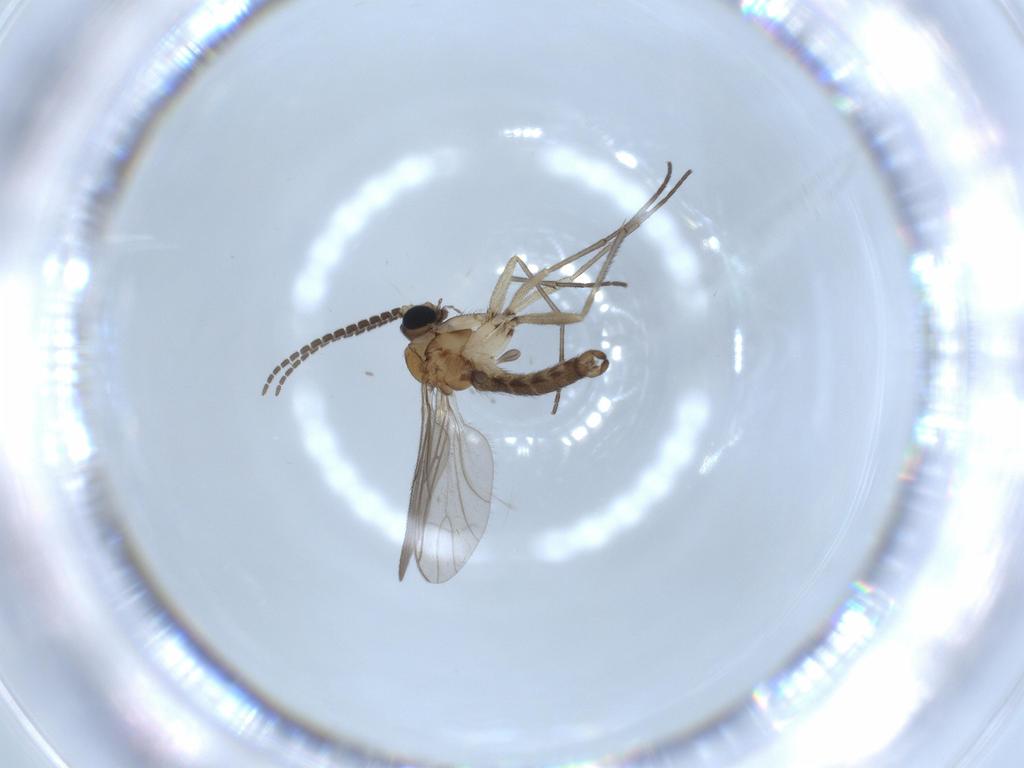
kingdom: Animalia
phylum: Arthropoda
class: Insecta
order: Diptera
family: Sciaridae
